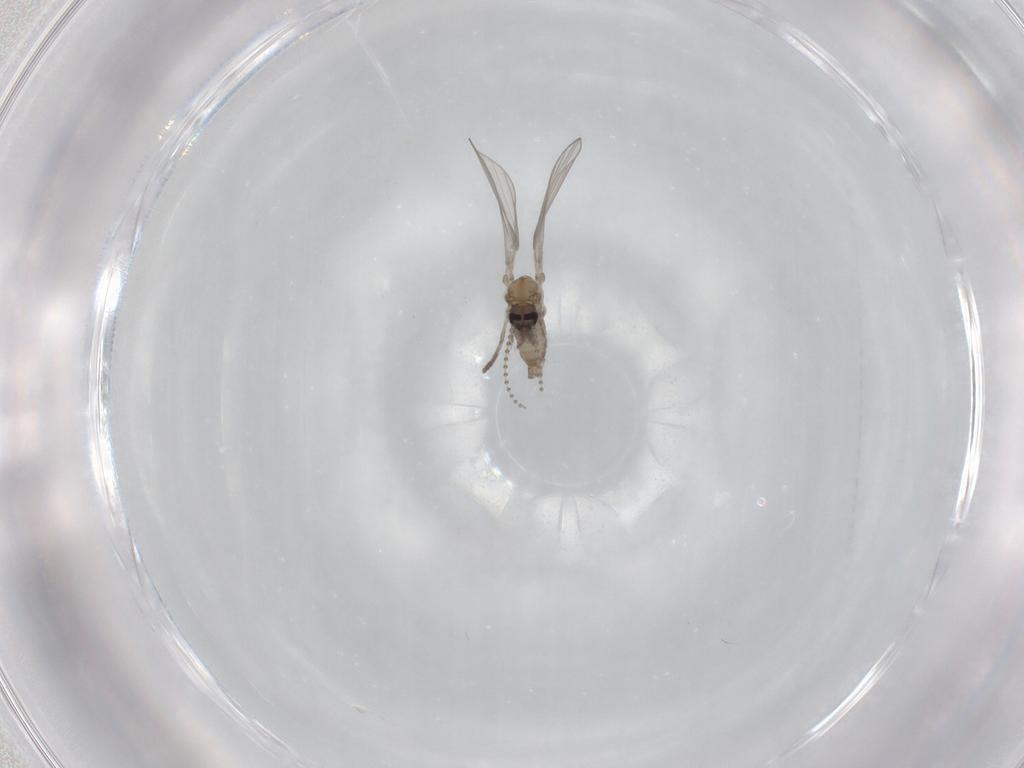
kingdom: Animalia
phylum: Arthropoda
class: Insecta
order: Diptera
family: Psychodidae
